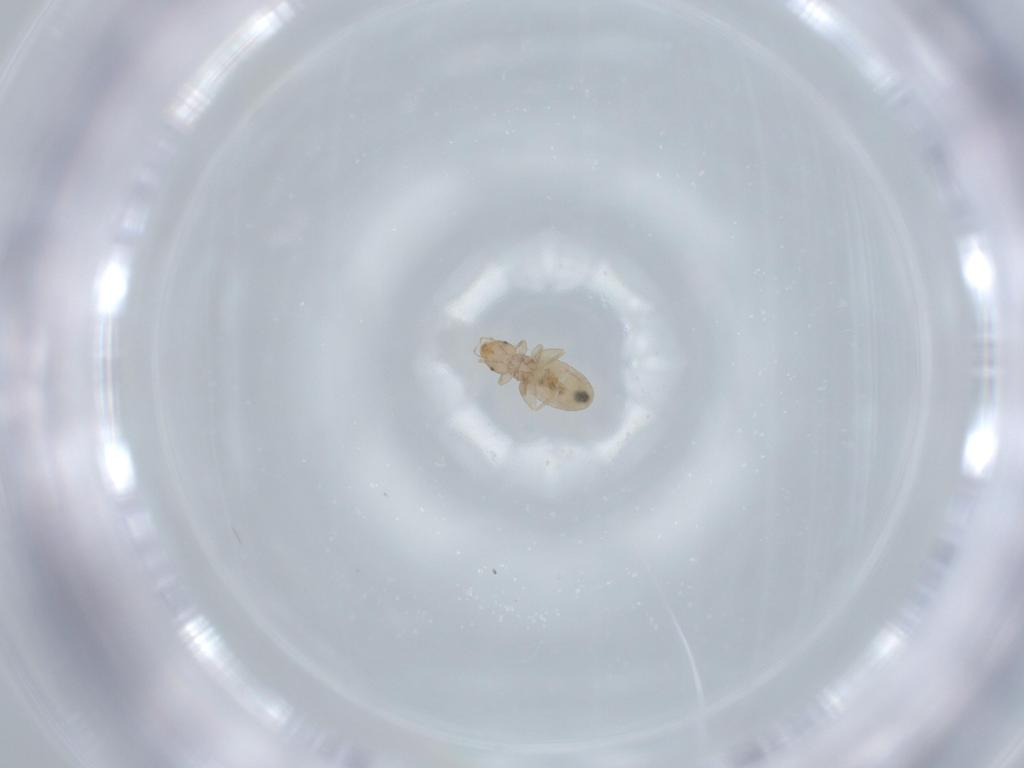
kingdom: Animalia
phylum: Arthropoda
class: Insecta
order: Psocodea
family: Liposcelididae
